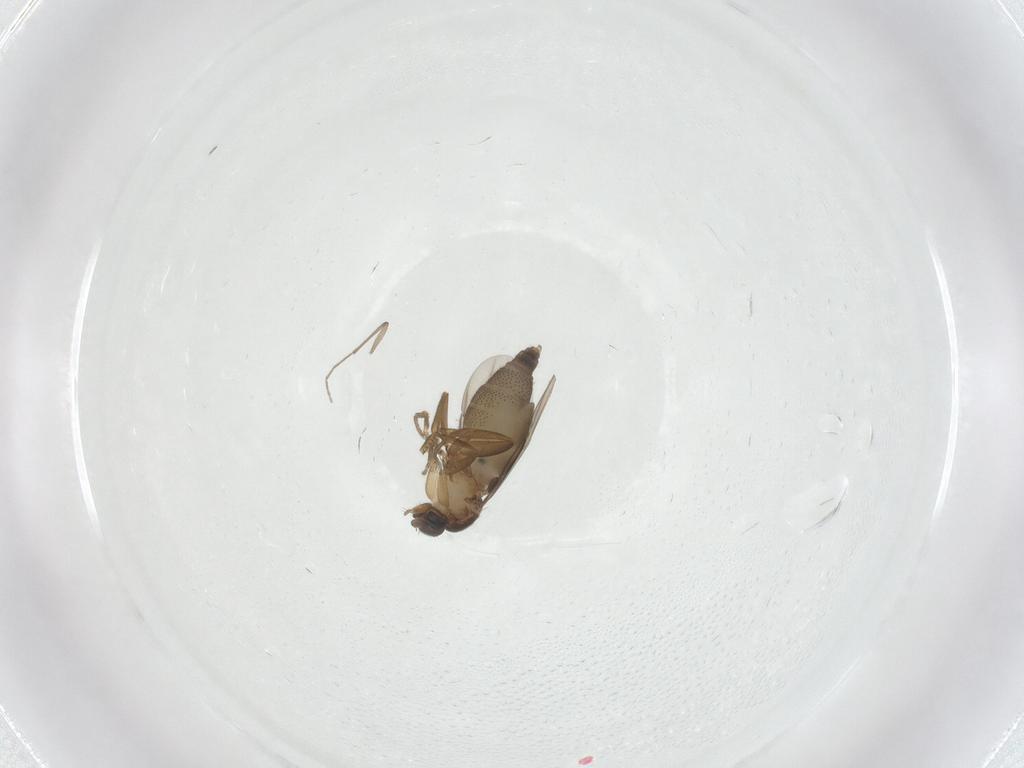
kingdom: Animalia
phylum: Arthropoda
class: Insecta
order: Diptera
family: Phoridae
